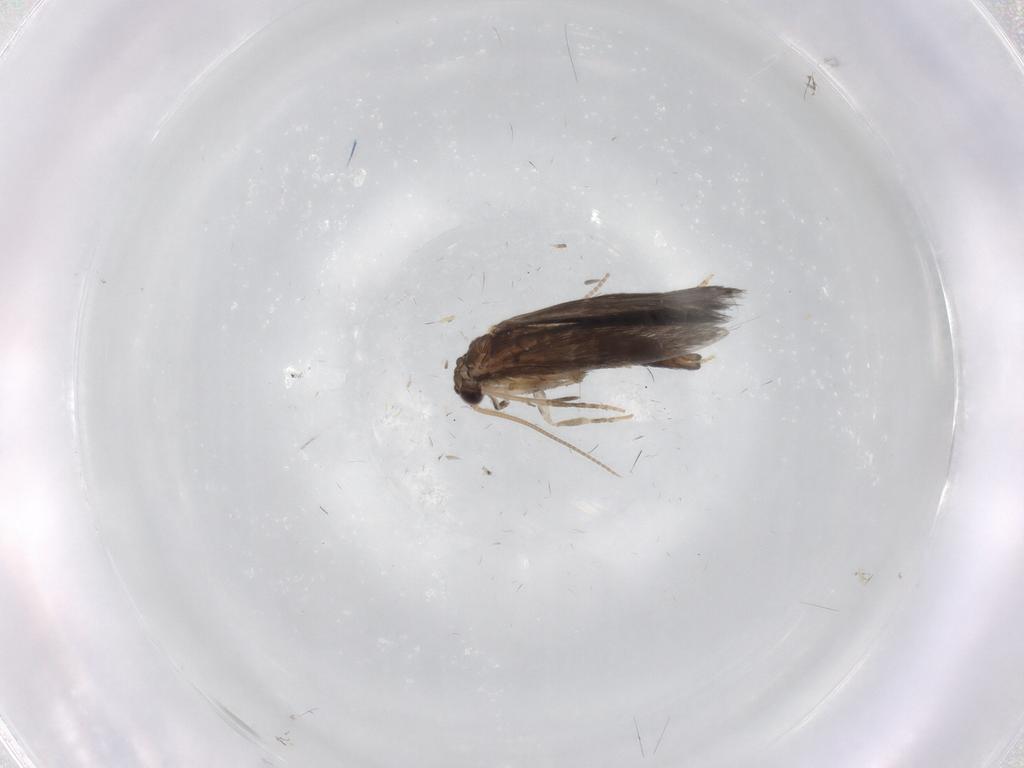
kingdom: Animalia
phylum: Arthropoda
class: Insecta
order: Trichoptera
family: Hydroptilidae
